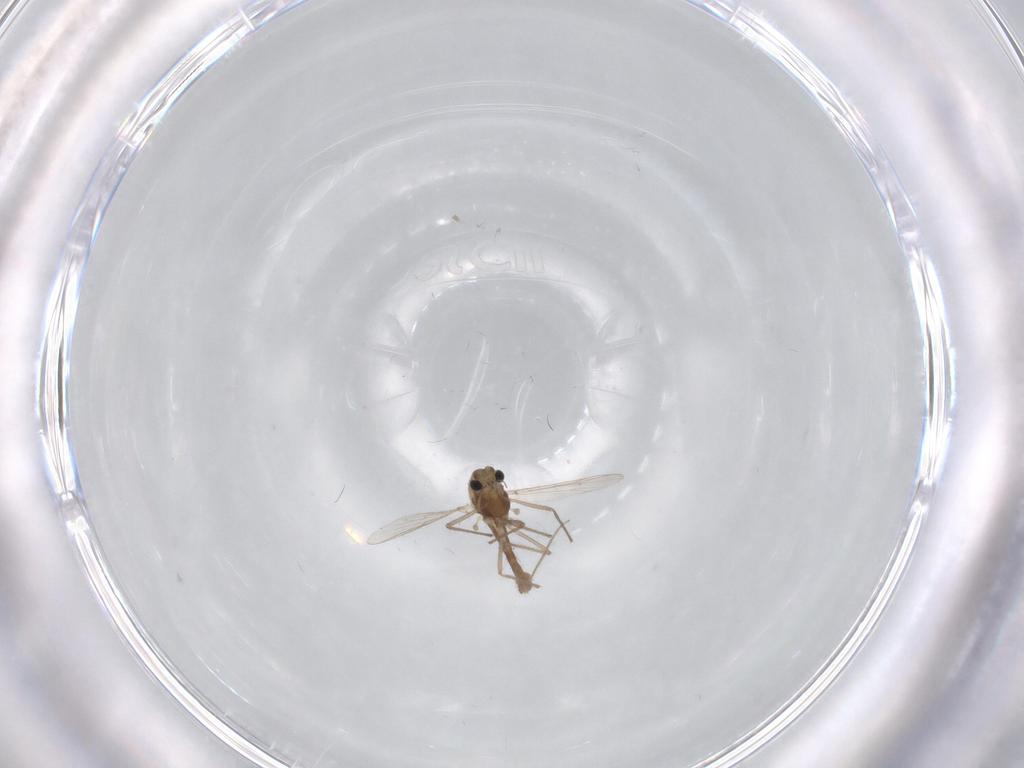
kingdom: Animalia
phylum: Arthropoda
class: Insecta
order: Diptera
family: Chironomidae
